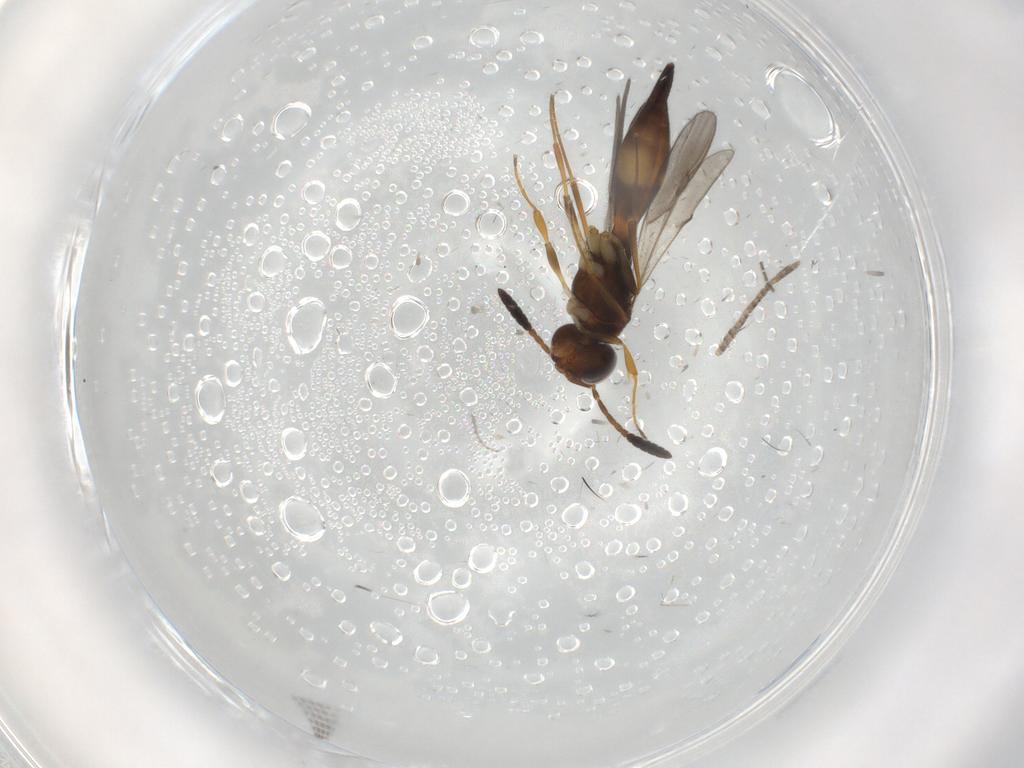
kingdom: Animalia
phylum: Arthropoda
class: Insecta
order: Hymenoptera
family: Scelionidae
